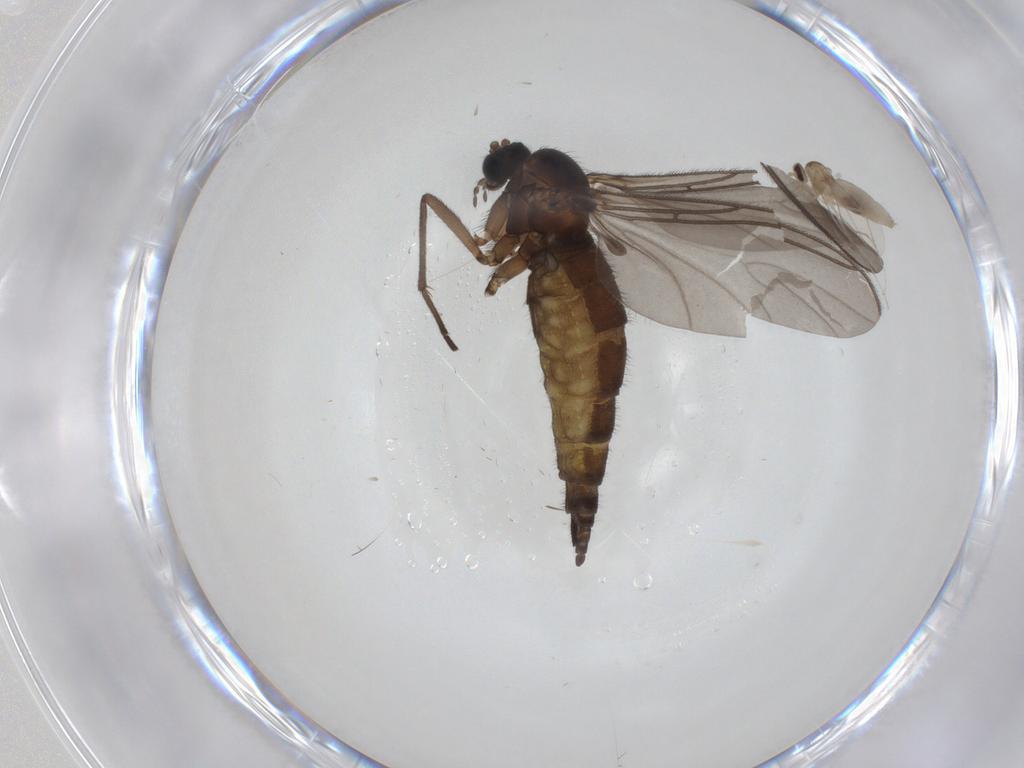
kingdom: Animalia
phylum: Arthropoda
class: Insecta
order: Diptera
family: Sciaridae
